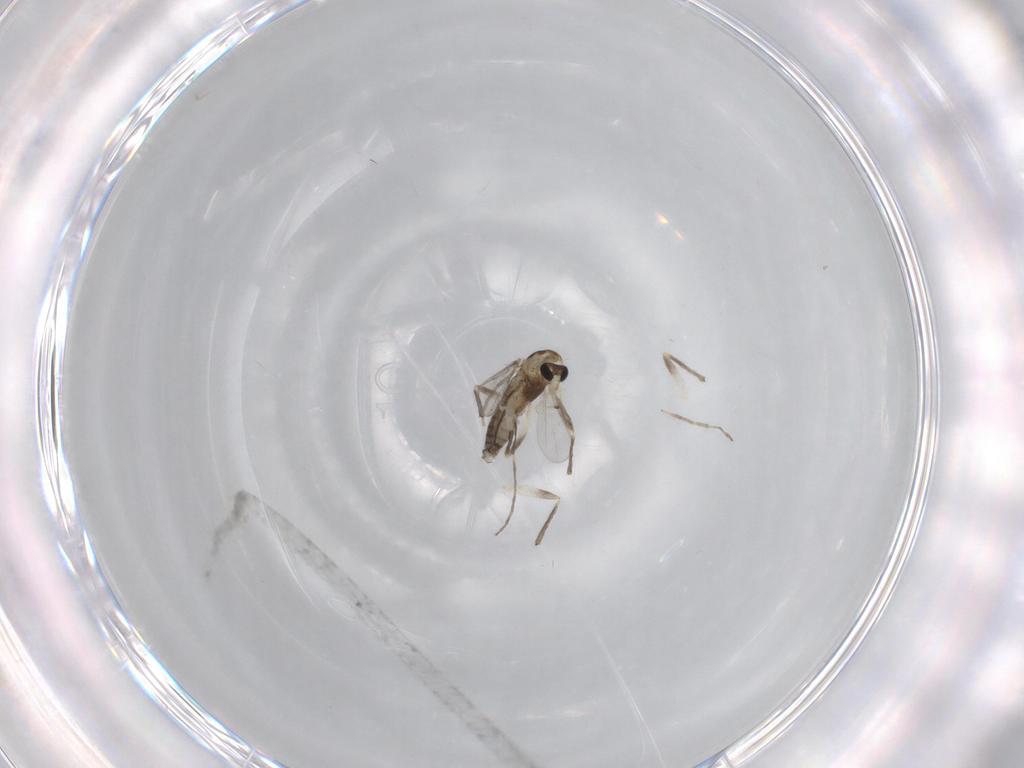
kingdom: Animalia
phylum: Arthropoda
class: Insecta
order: Diptera
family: Chironomidae
